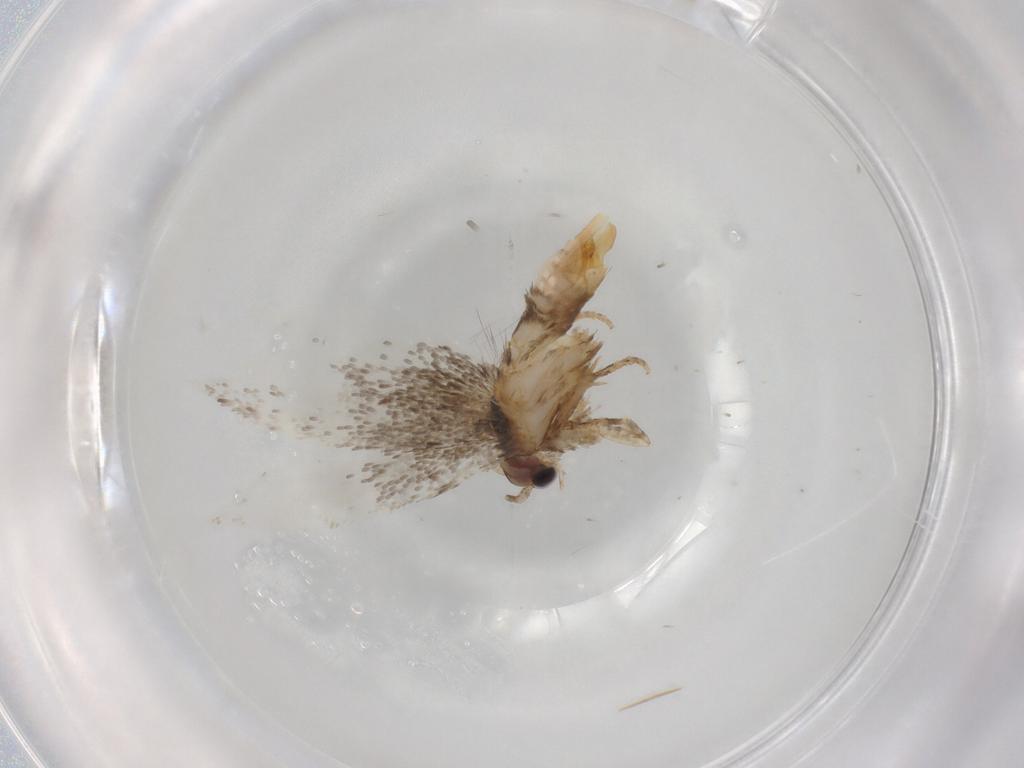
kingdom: Animalia
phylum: Arthropoda
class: Insecta
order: Lepidoptera
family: Tineidae
